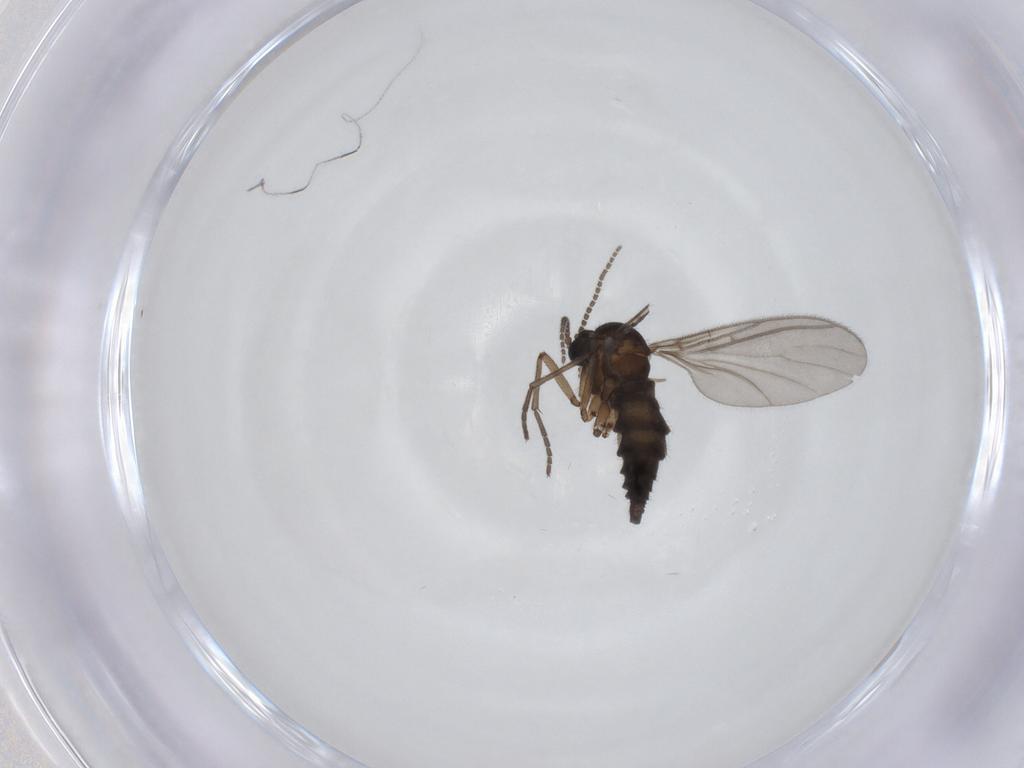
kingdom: Animalia
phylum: Arthropoda
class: Insecta
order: Diptera
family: Sciaridae
